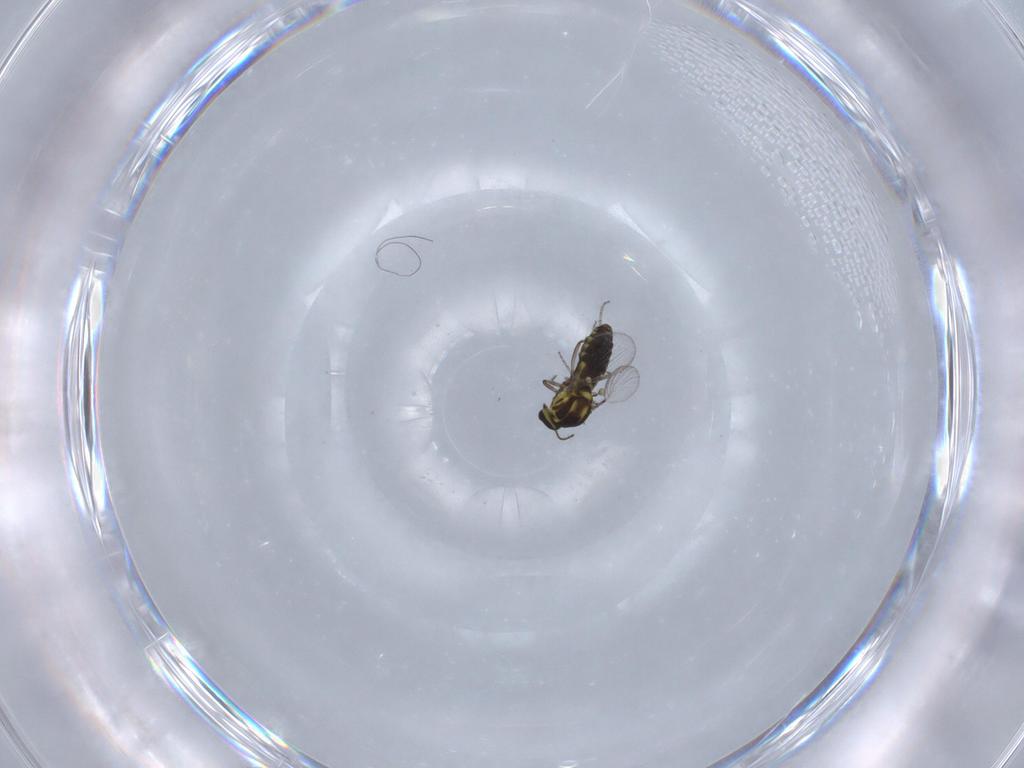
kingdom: Animalia
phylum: Arthropoda
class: Insecta
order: Diptera
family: Ceratopogonidae
